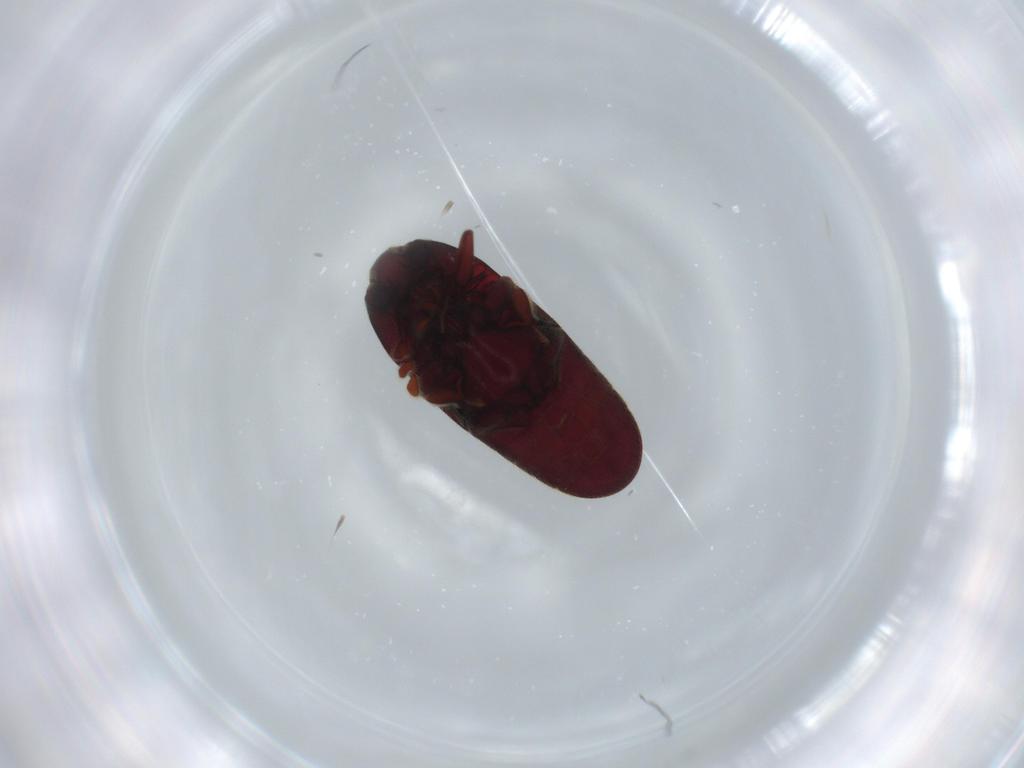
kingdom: Animalia
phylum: Arthropoda
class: Insecta
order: Coleoptera
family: Throscidae
